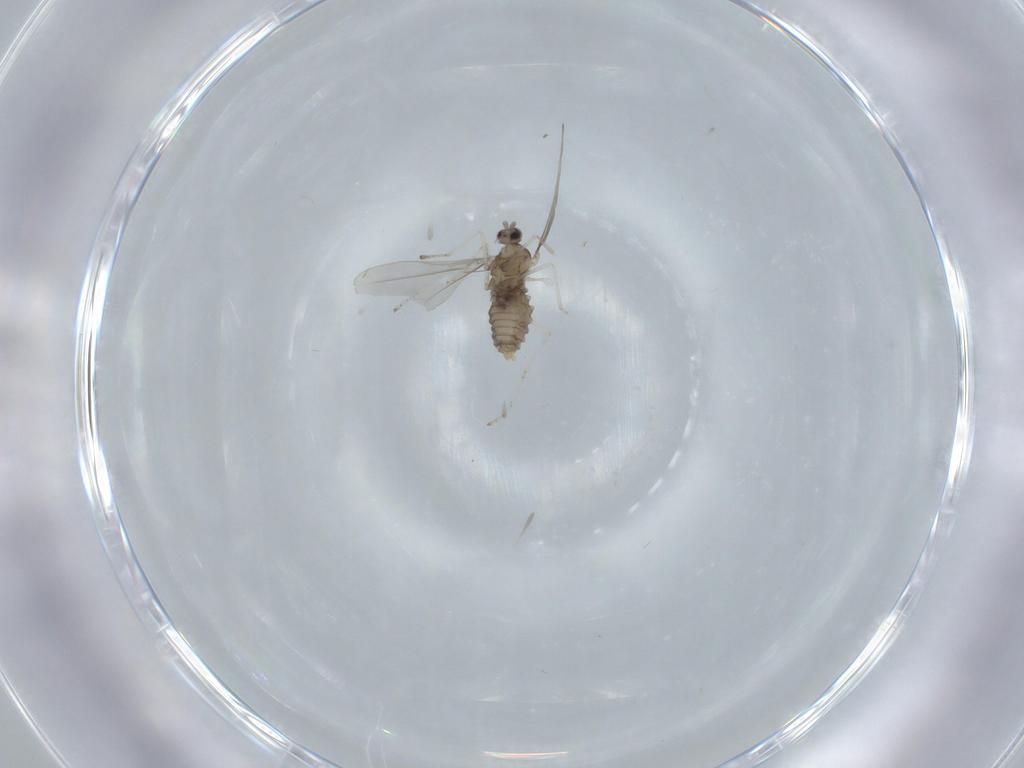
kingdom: Animalia
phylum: Arthropoda
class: Insecta
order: Diptera
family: Cecidomyiidae
